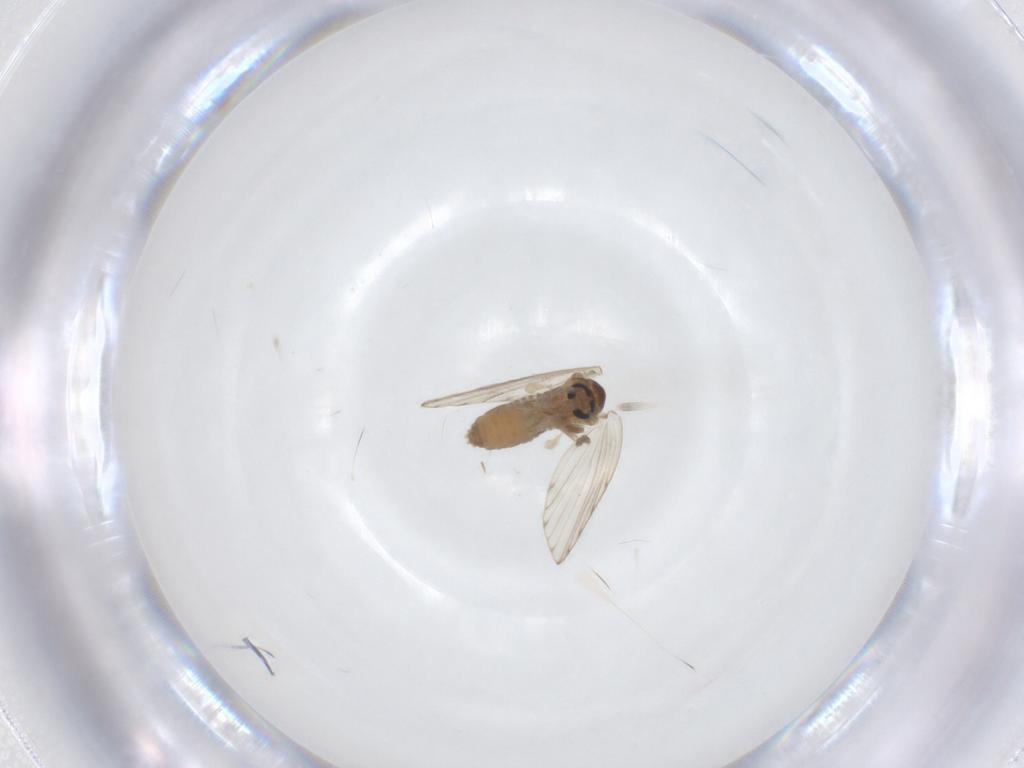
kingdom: Animalia
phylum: Arthropoda
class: Insecta
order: Diptera
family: Psychodidae
